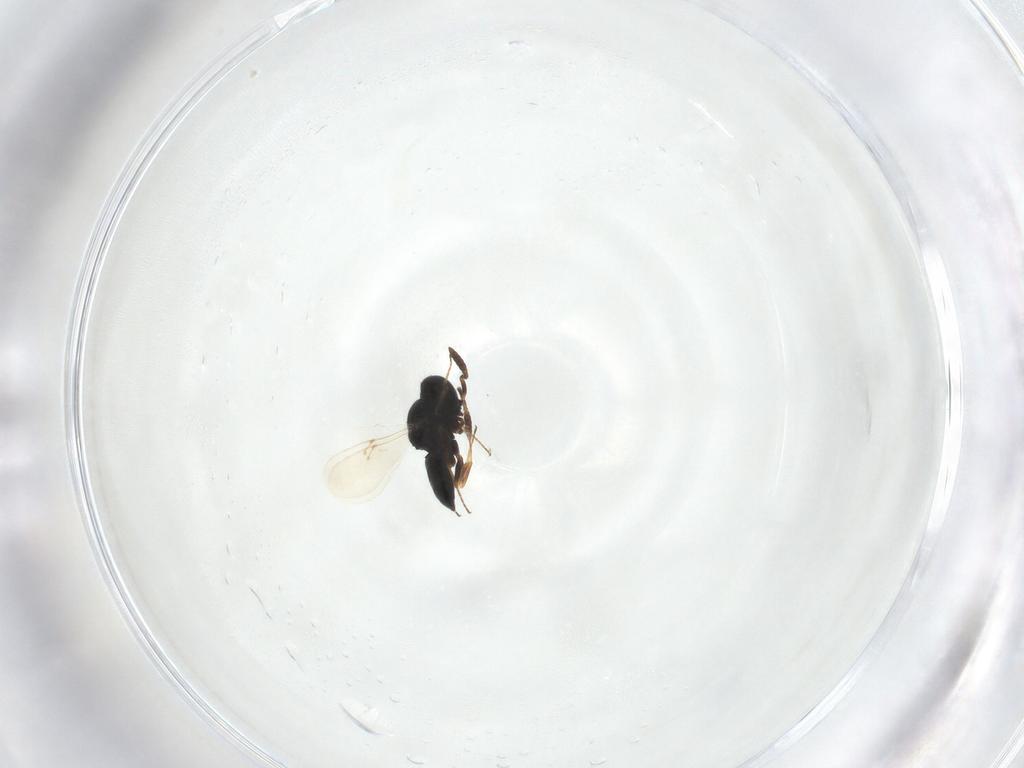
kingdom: Animalia
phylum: Arthropoda
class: Insecta
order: Hymenoptera
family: Scelionidae
